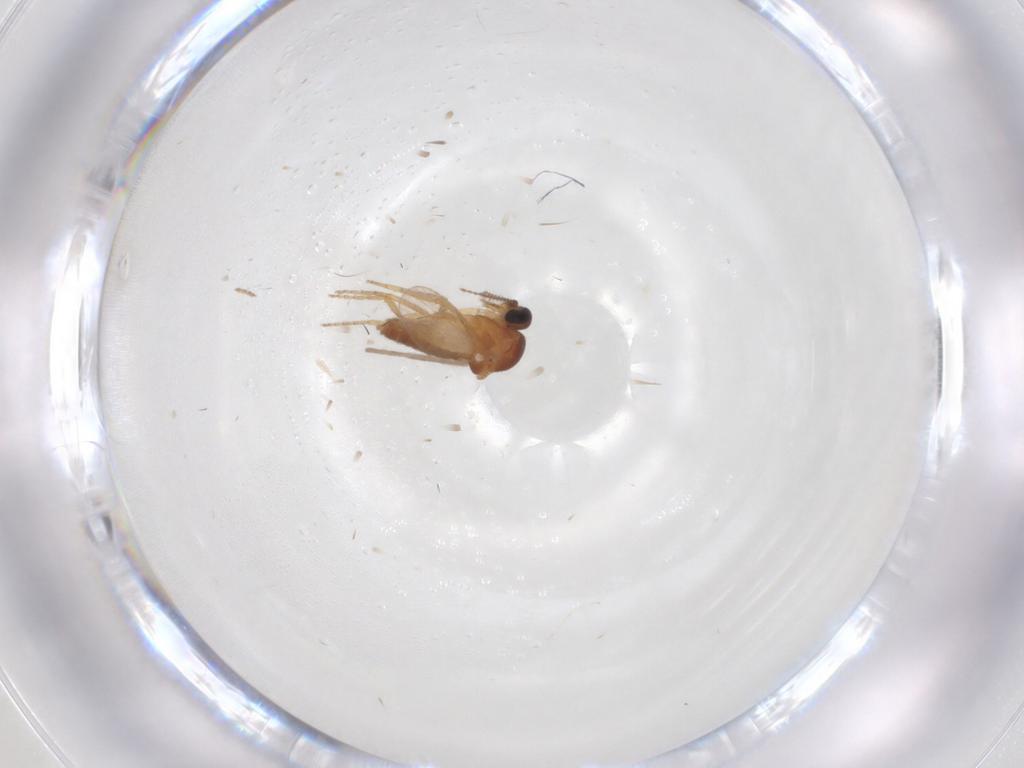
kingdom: Animalia
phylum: Arthropoda
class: Insecta
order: Diptera
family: Ceratopogonidae
